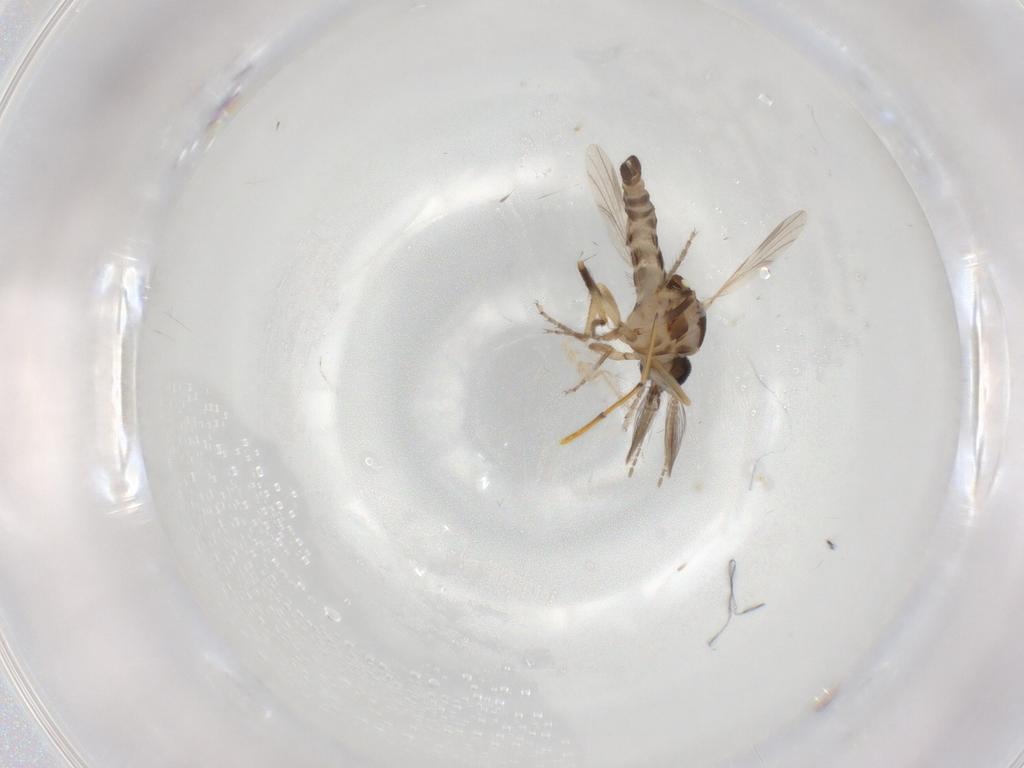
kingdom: Animalia
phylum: Arthropoda
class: Insecta
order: Diptera
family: Ceratopogonidae
